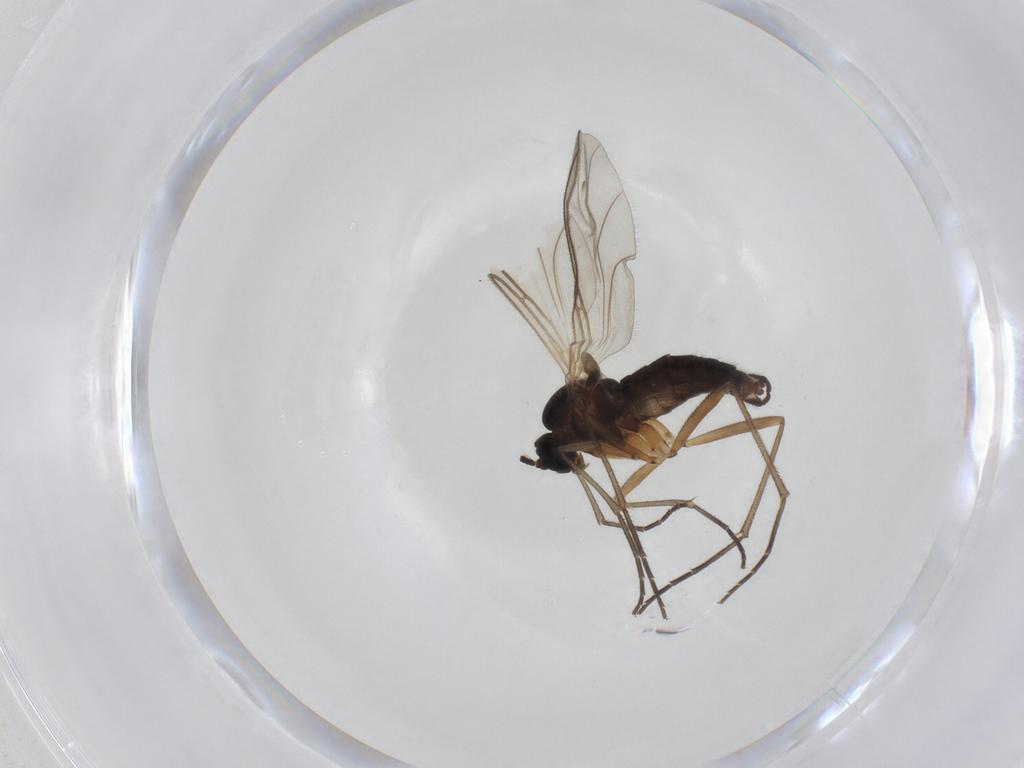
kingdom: Animalia
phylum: Arthropoda
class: Insecta
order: Diptera
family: Sciaridae
